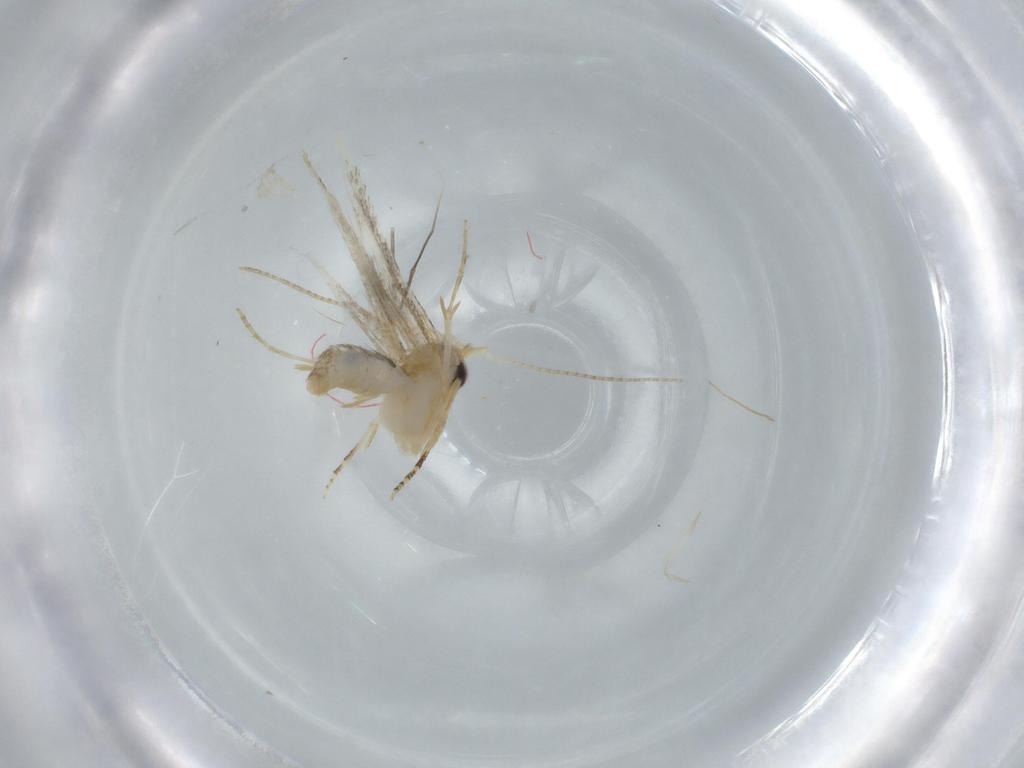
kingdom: Animalia
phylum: Arthropoda
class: Insecta
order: Lepidoptera
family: Bucculatricidae
